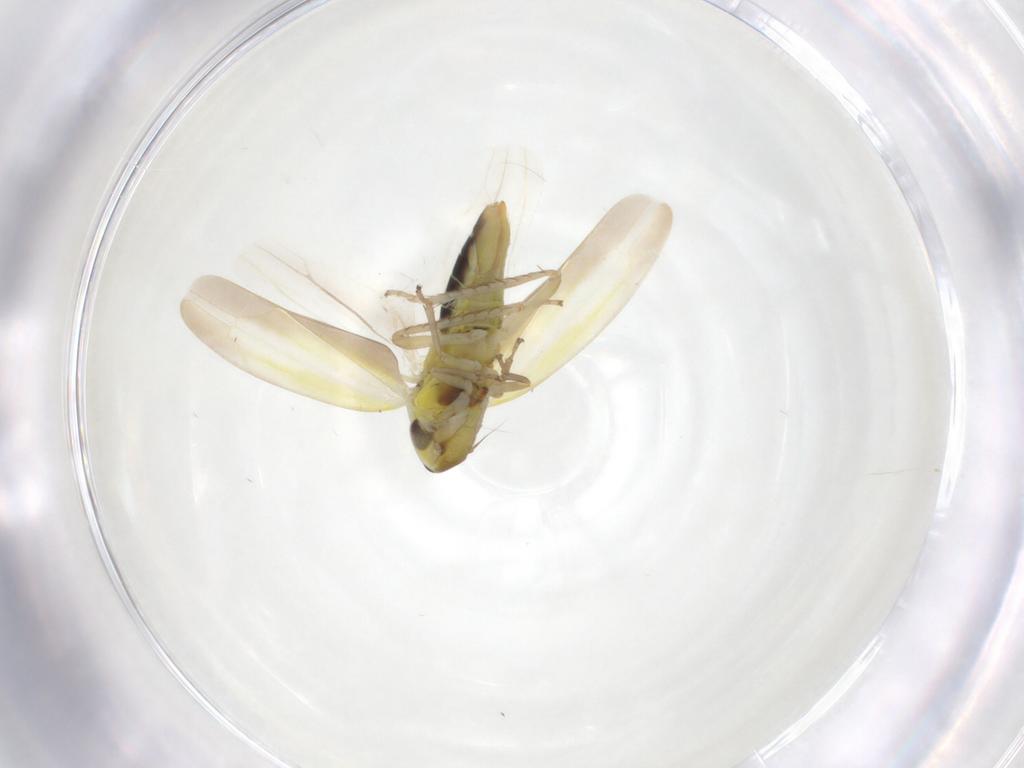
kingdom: Animalia
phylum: Arthropoda
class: Insecta
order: Hemiptera
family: Cicadellidae
